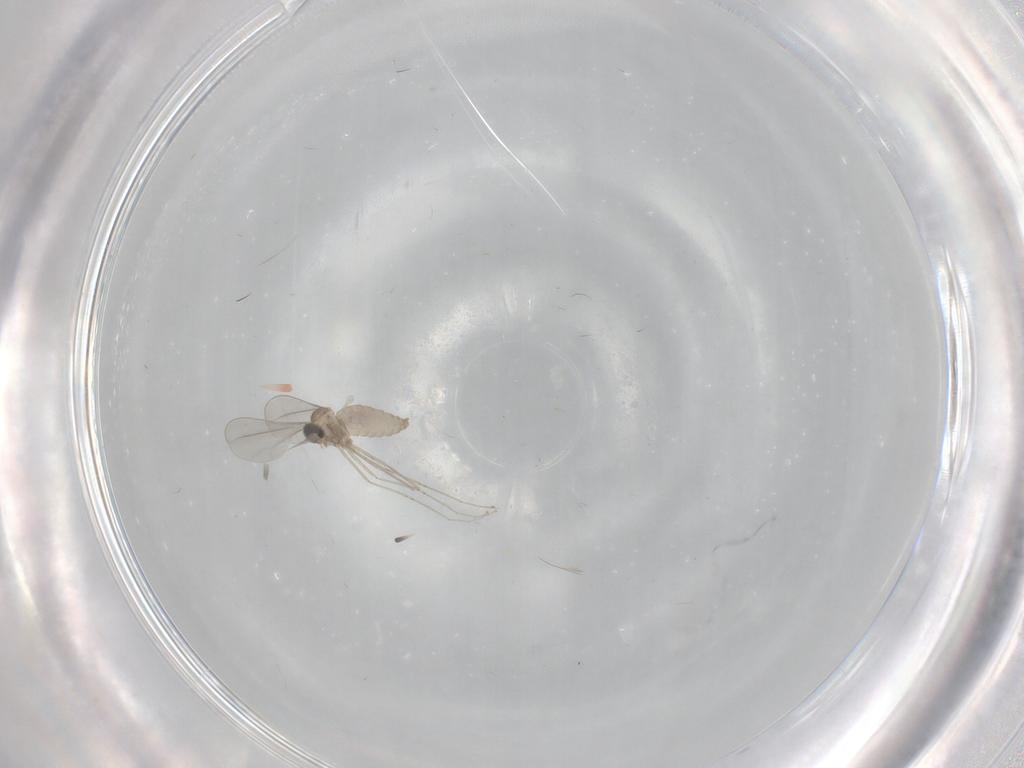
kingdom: Animalia
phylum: Arthropoda
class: Insecta
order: Diptera
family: Cecidomyiidae
